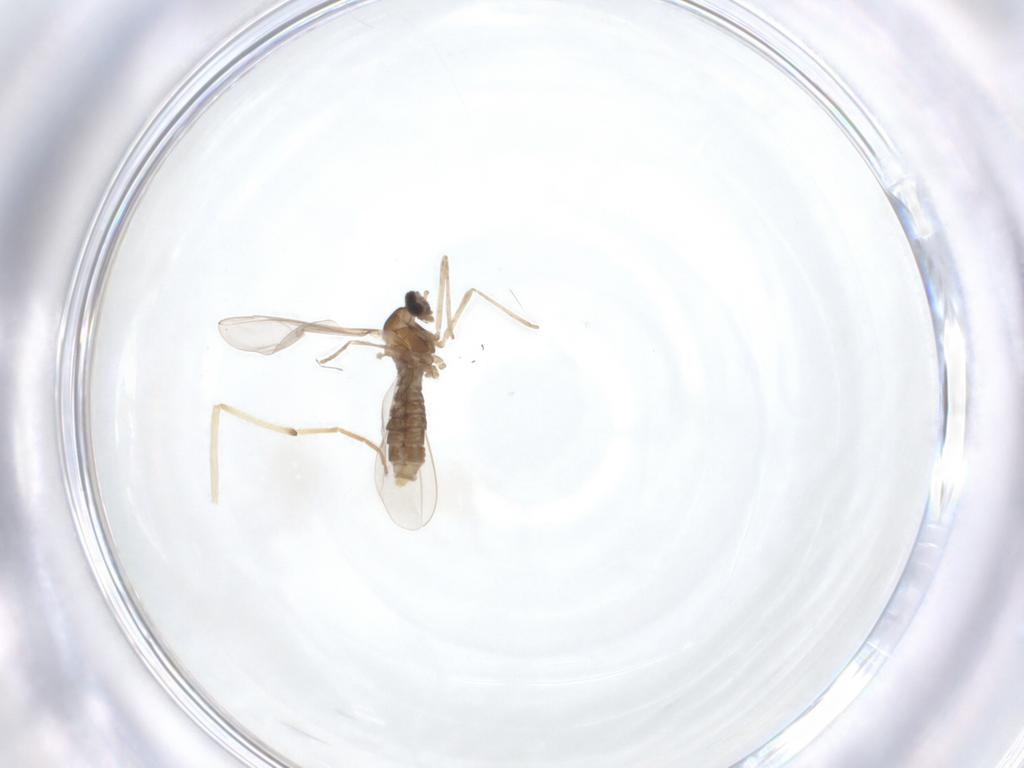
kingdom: Animalia
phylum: Arthropoda
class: Insecta
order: Diptera
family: Cecidomyiidae
